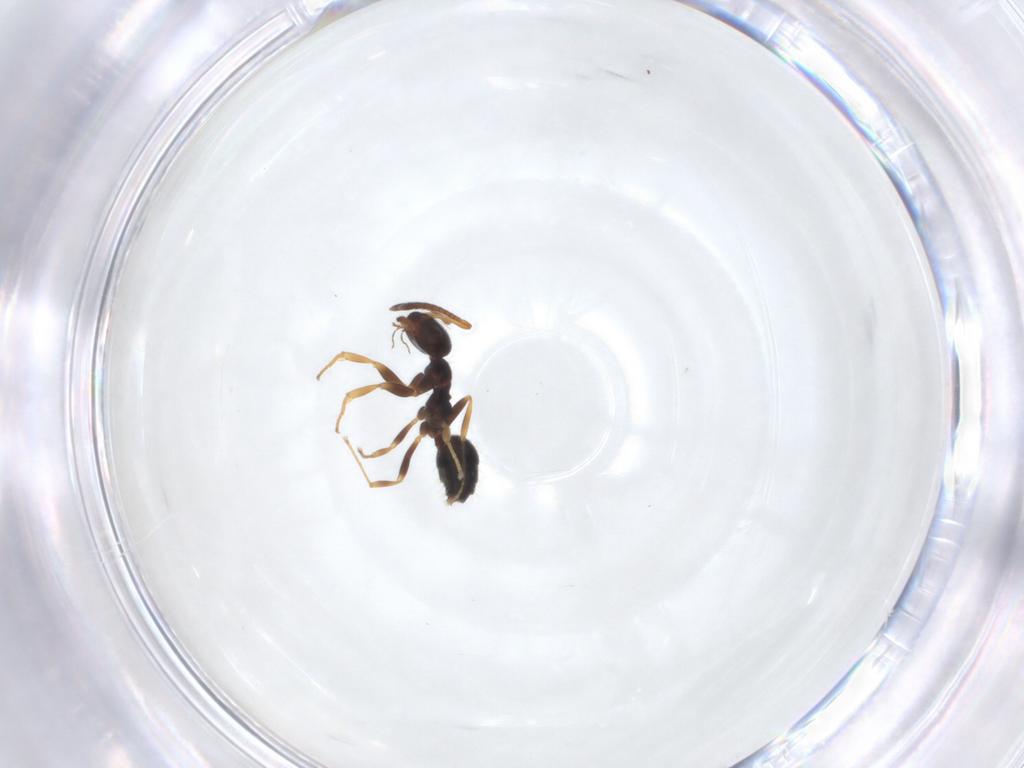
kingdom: Animalia
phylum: Arthropoda
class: Insecta
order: Hymenoptera
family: Formicidae
